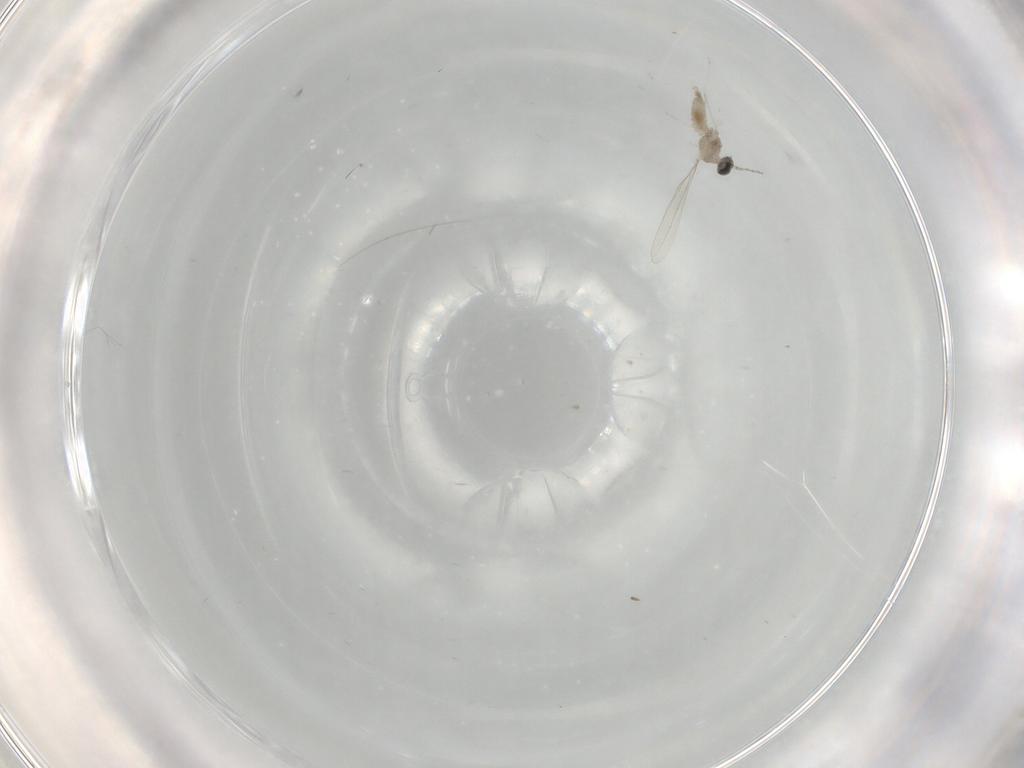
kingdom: Animalia
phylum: Arthropoda
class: Insecta
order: Diptera
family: Cecidomyiidae
